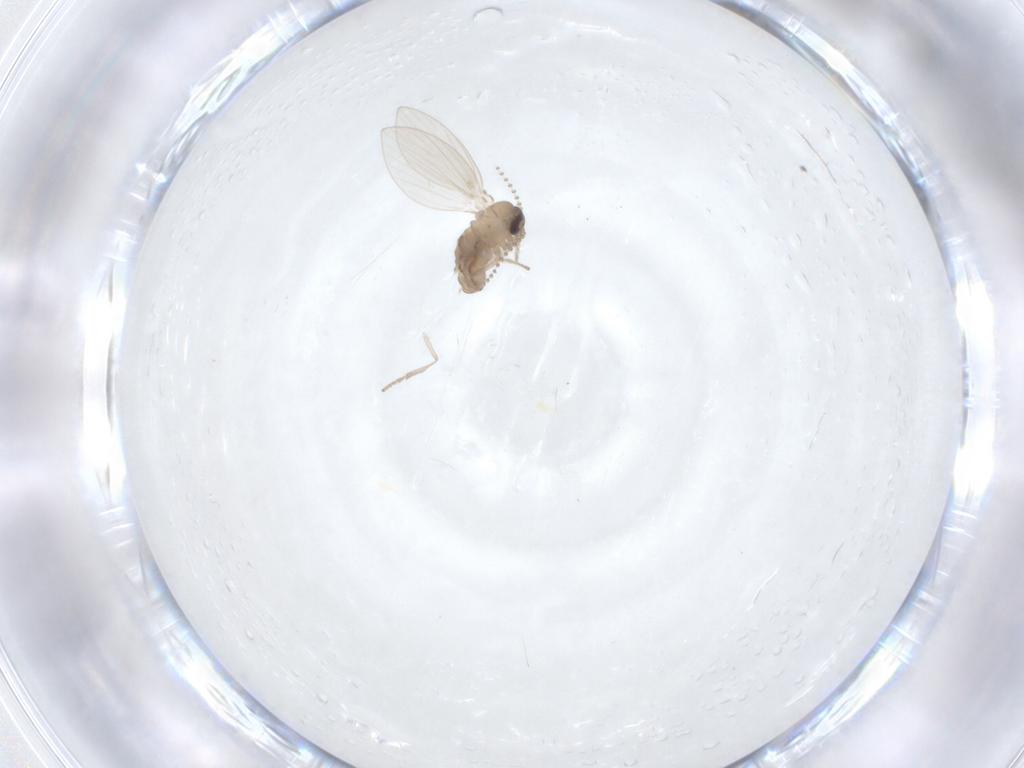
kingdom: Animalia
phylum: Arthropoda
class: Insecta
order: Diptera
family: Psychodidae
